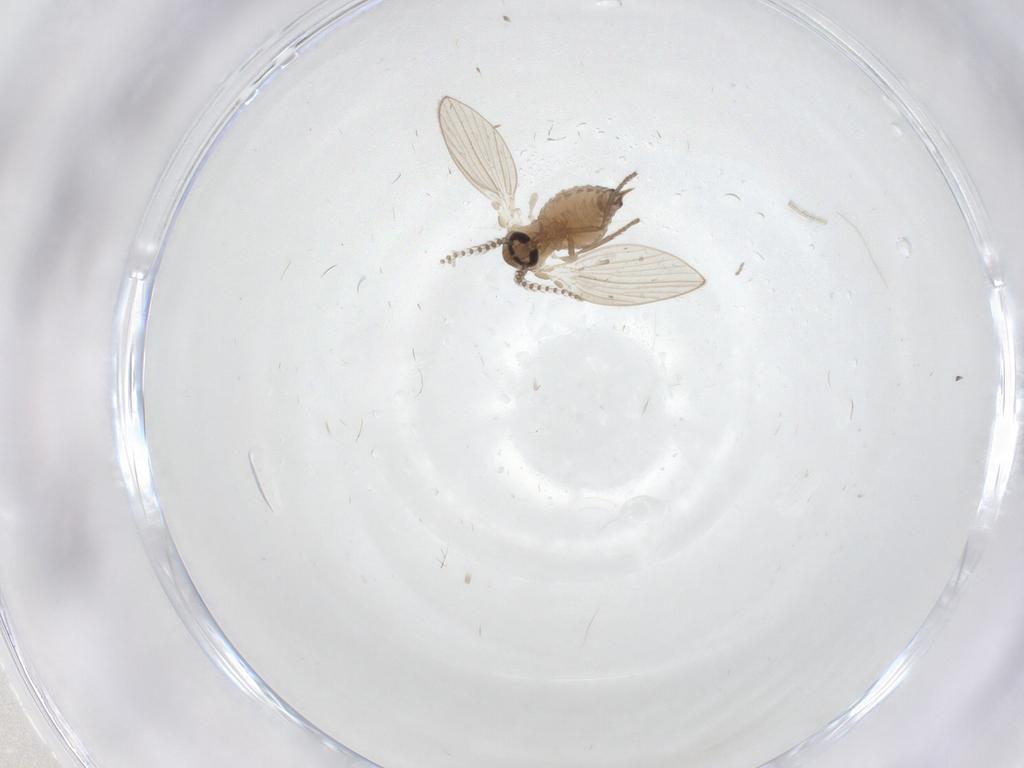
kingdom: Animalia
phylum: Arthropoda
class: Insecta
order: Diptera
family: Psychodidae
